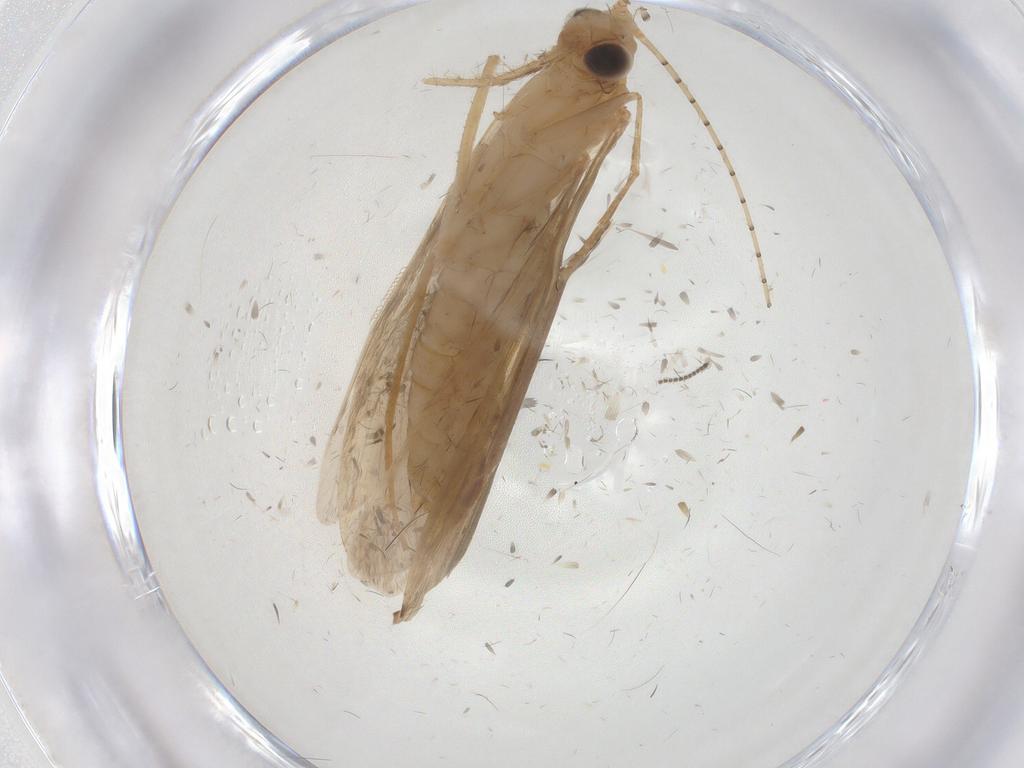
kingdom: Animalia
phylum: Arthropoda
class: Insecta
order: Trichoptera
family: Leptoceridae
